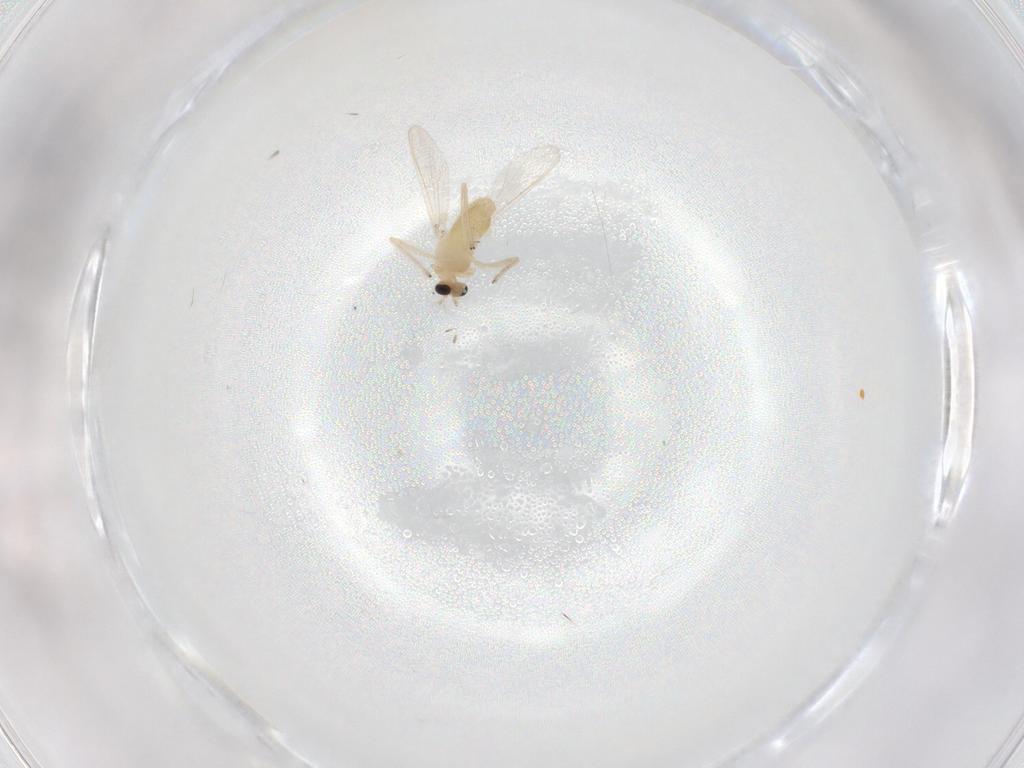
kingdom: Animalia
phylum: Arthropoda
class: Insecta
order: Diptera
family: Chironomidae
